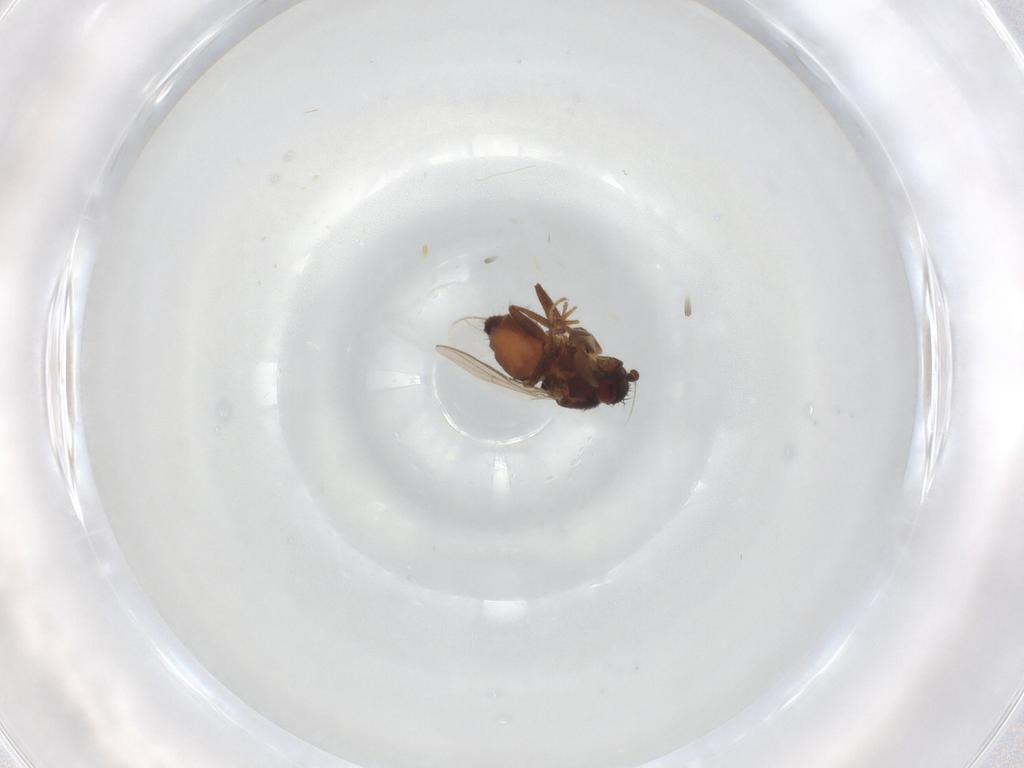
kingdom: Animalia
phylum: Arthropoda
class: Insecta
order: Diptera
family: Sphaeroceridae
